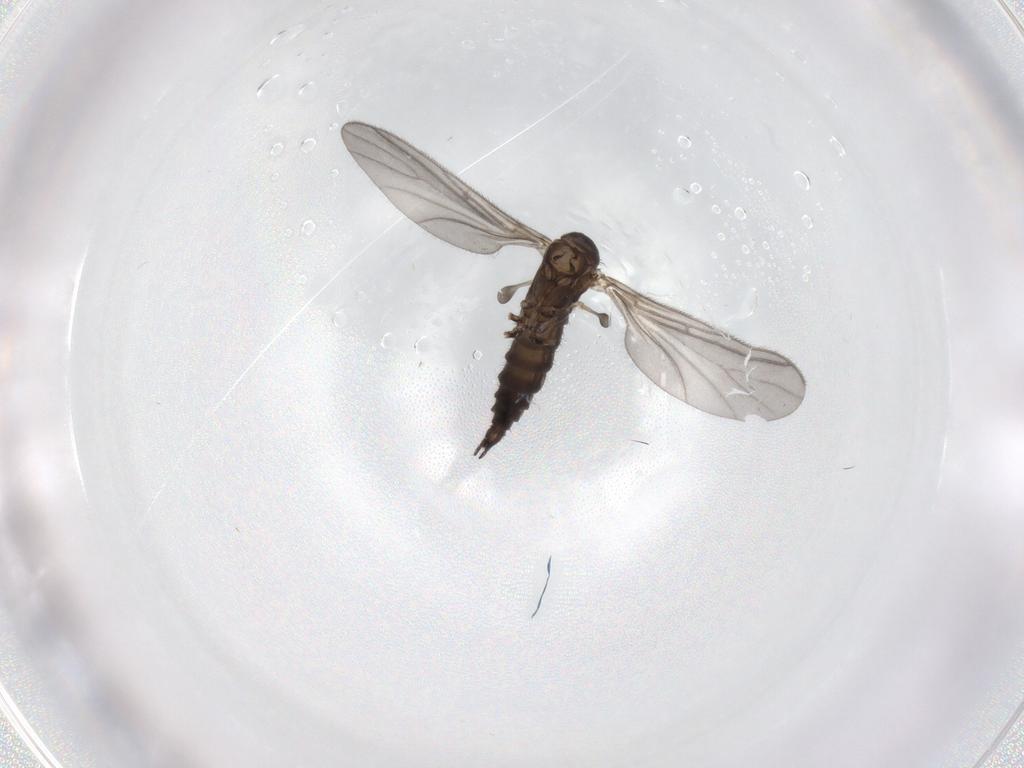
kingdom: Animalia
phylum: Arthropoda
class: Insecta
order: Diptera
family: Sciaridae
